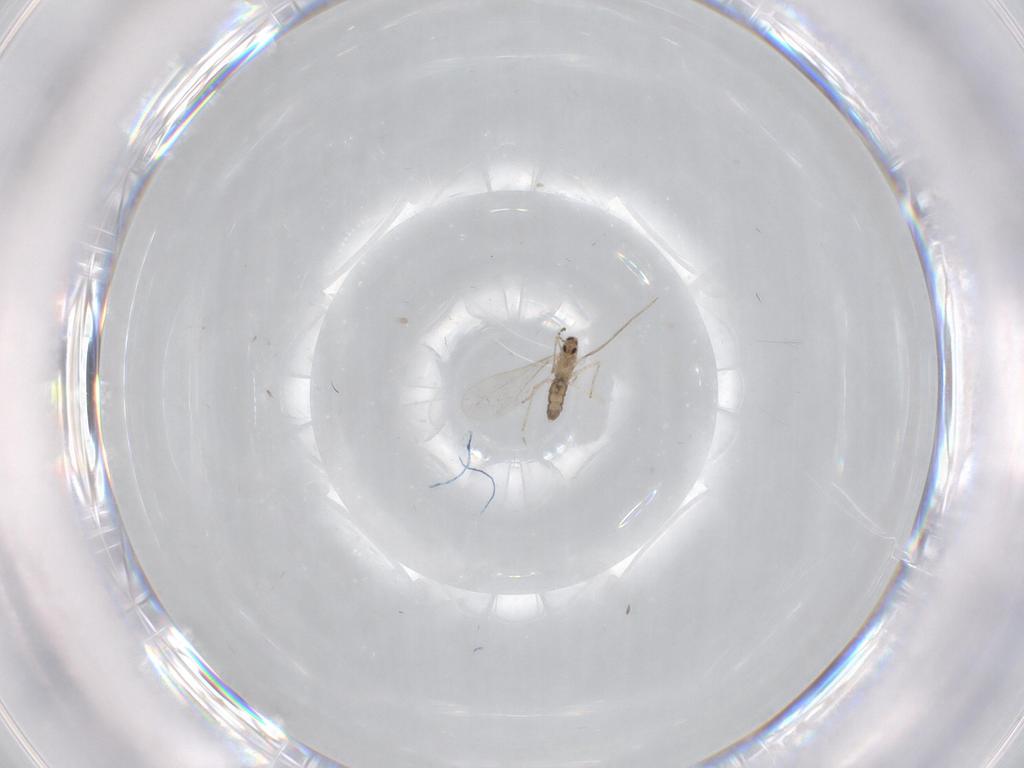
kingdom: Animalia
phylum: Arthropoda
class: Insecta
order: Diptera
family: Cecidomyiidae
